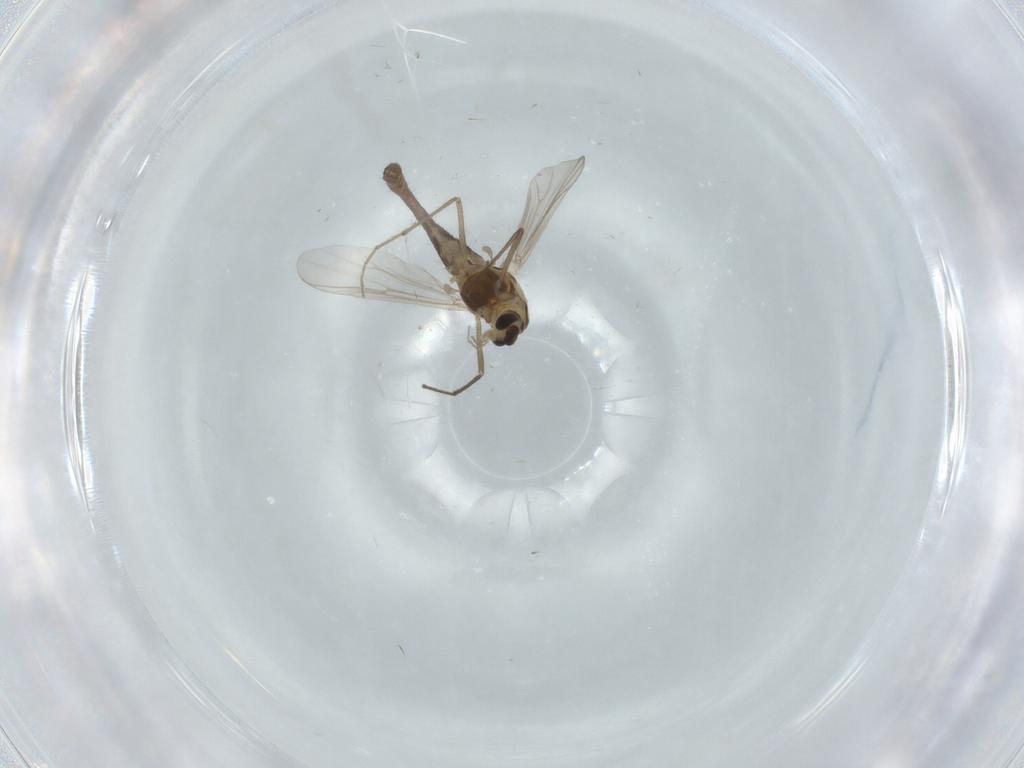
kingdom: Animalia
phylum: Arthropoda
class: Insecta
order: Diptera
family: Chironomidae
